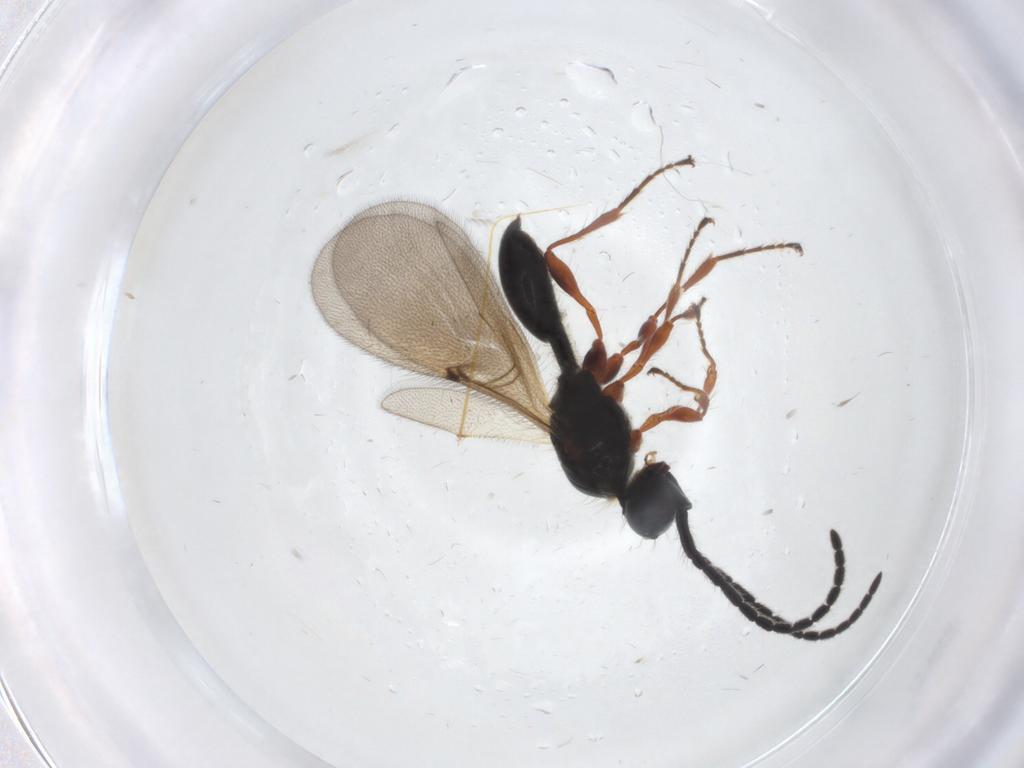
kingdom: Animalia
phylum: Arthropoda
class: Insecta
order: Hymenoptera
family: Diapriidae
